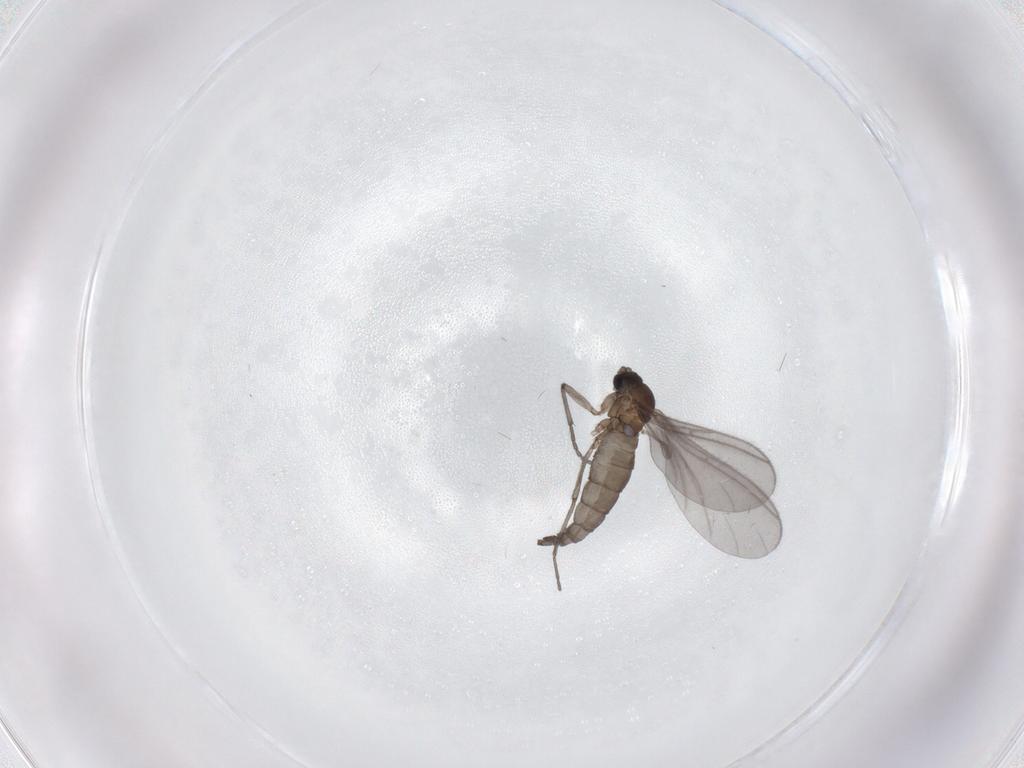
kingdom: Animalia
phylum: Arthropoda
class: Insecta
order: Diptera
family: Sciaridae
